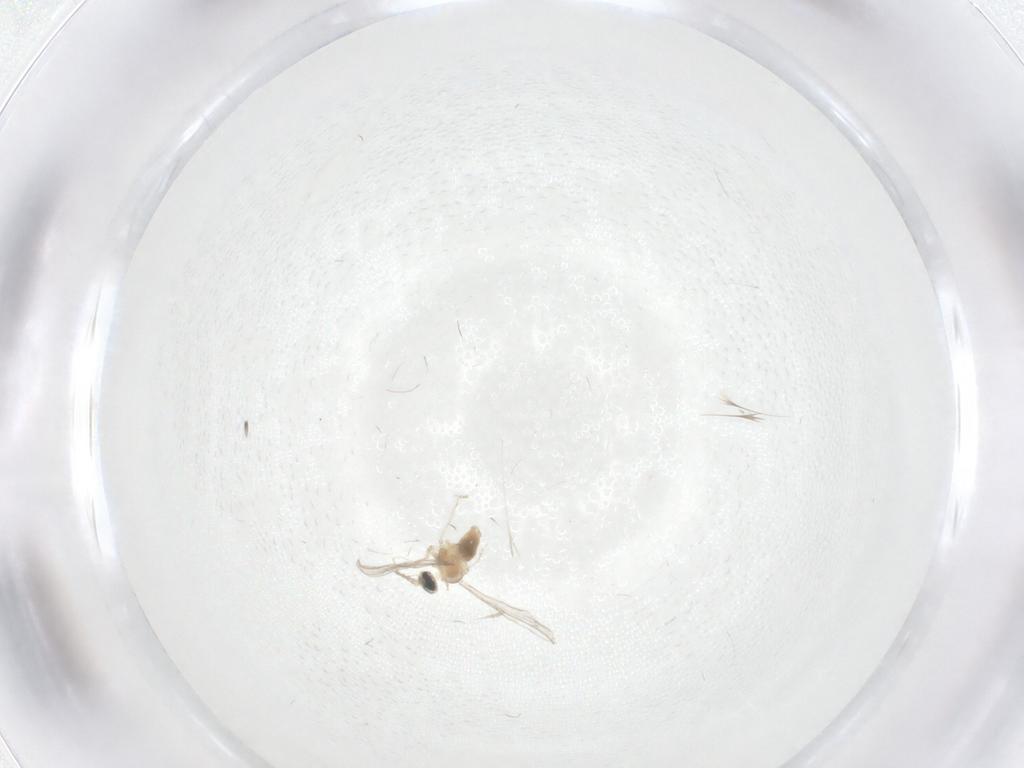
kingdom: Animalia
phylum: Arthropoda
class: Insecta
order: Diptera
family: Cecidomyiidae
